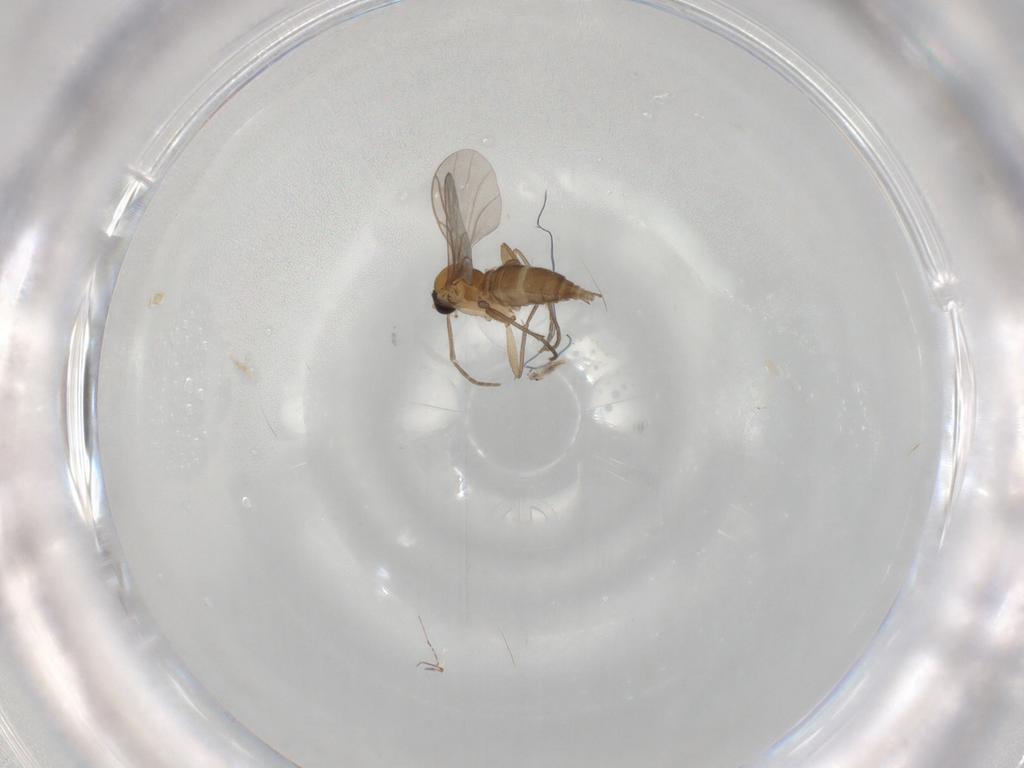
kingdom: Animalia
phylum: Arthropoda
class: Insecta
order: Diptera
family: Sciaridae
